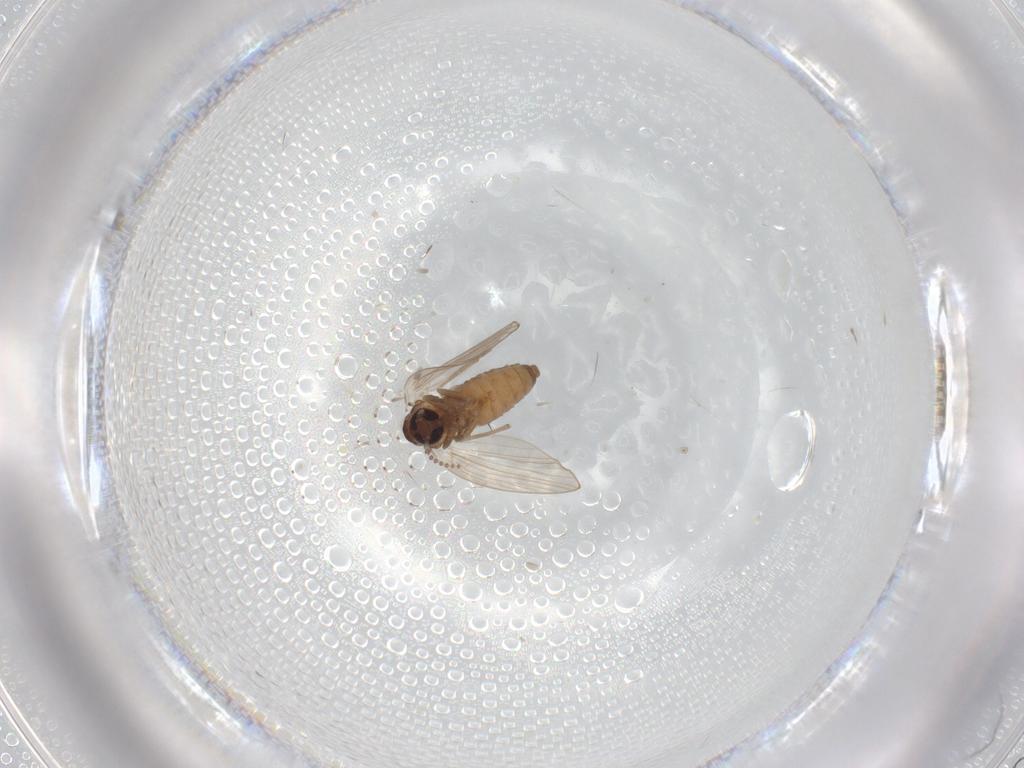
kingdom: Animalia
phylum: Arthropoda
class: Insecta
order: Diptera
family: Psychodidae
